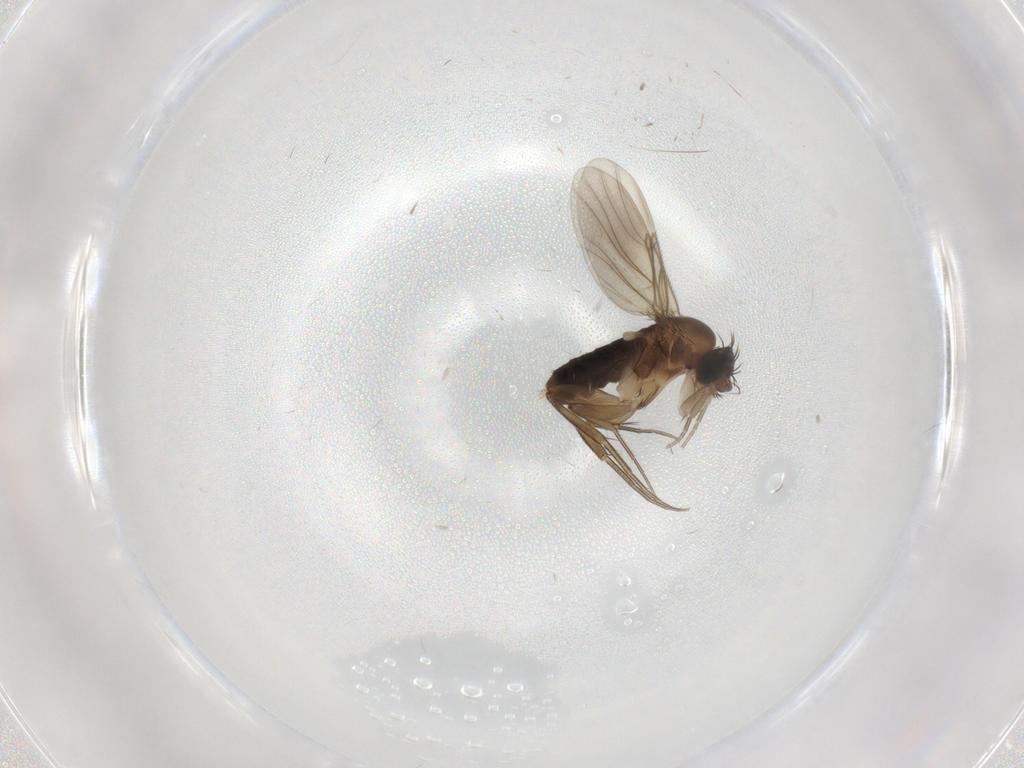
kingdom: Animalia
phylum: Arthropoda
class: Insecta
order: Diptera
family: Phoridae
